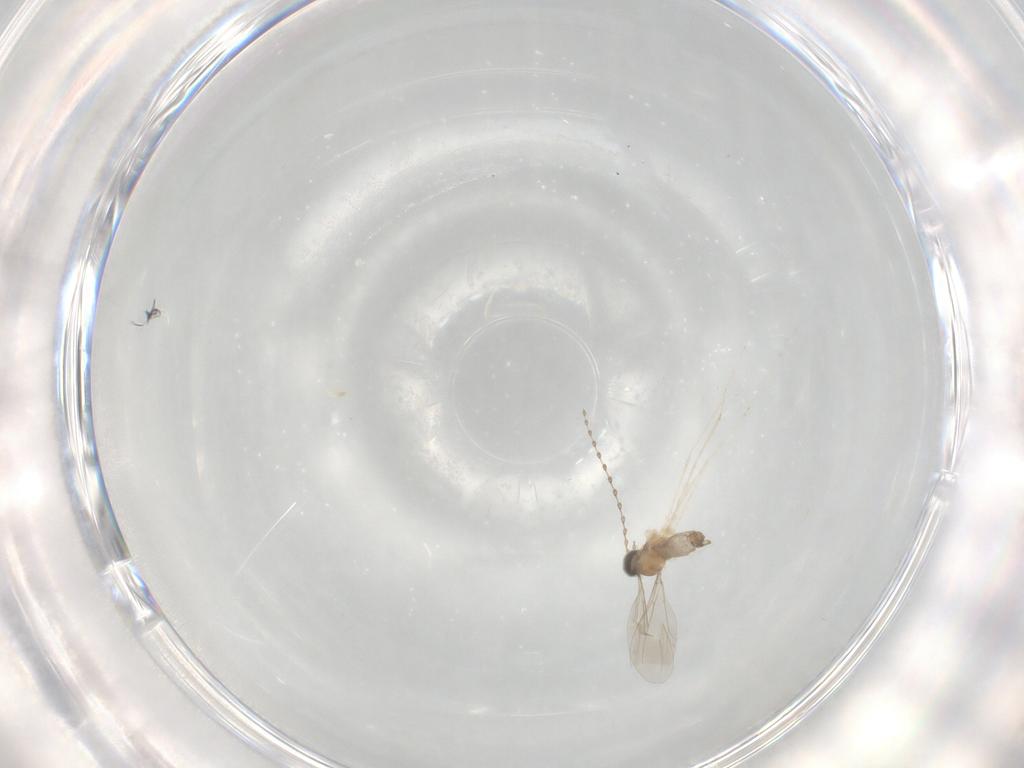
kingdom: Animalia
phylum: Arthropoda
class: Insecta
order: Diptera
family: Cecidomyiidae
